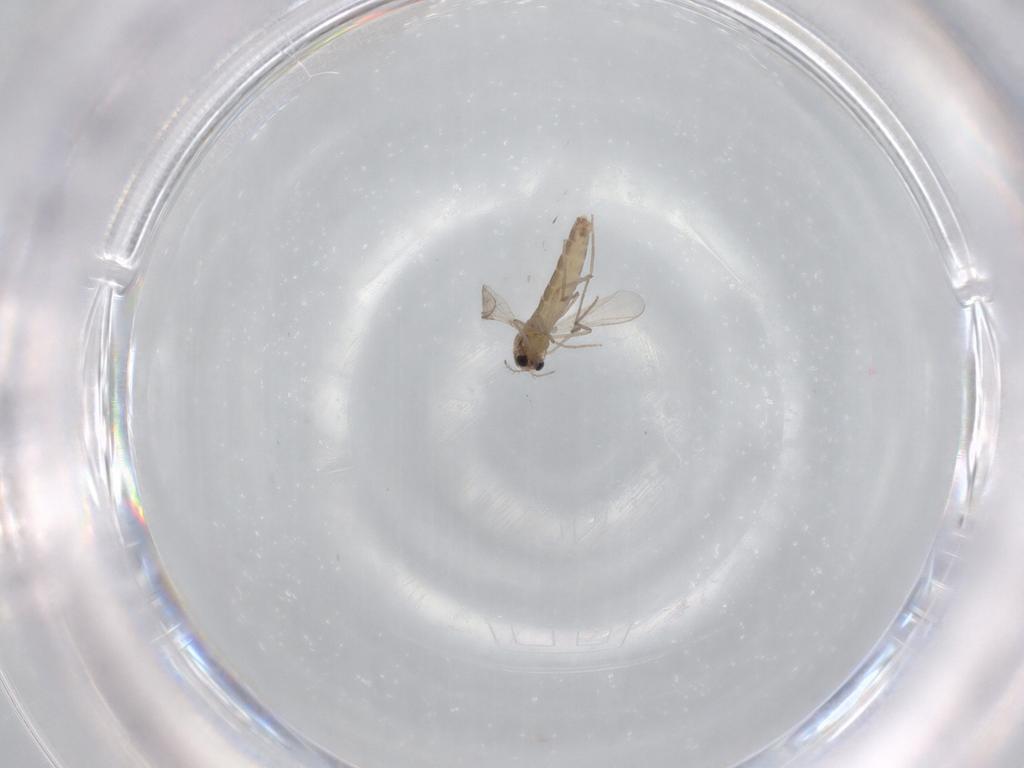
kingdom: Animalia
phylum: Arthropoda
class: Insecta
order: Diptera
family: Chironomidae
